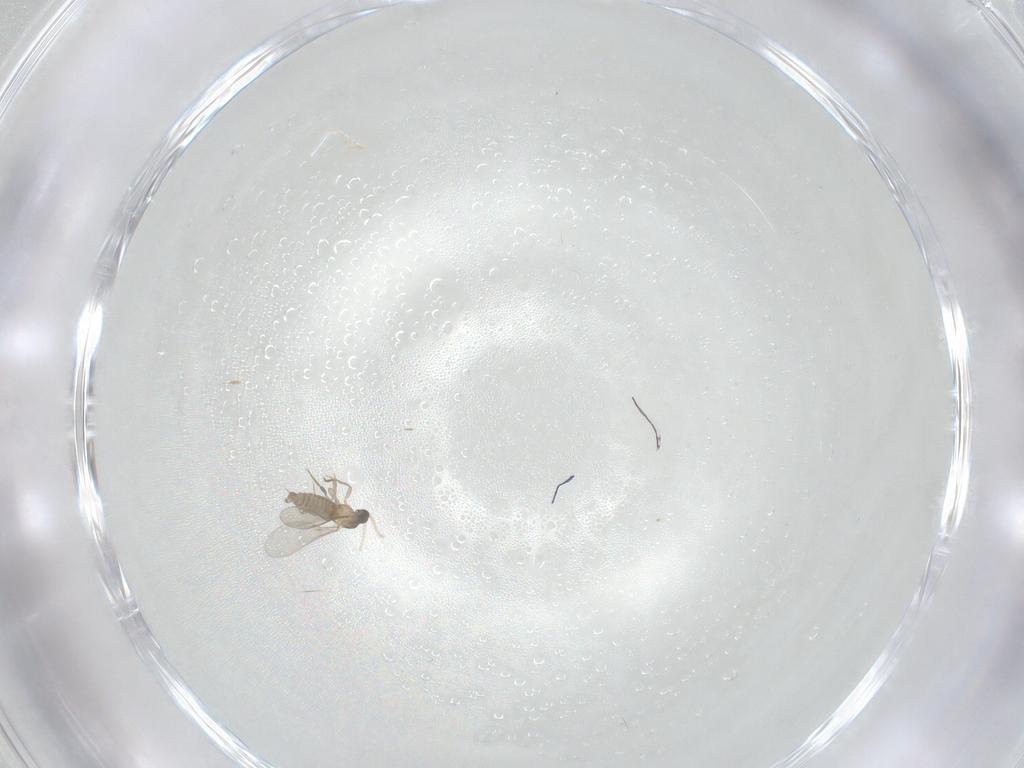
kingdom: Animalia
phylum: Arthropoda
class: Insecta
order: Diptera
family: Cecidomyiidae
